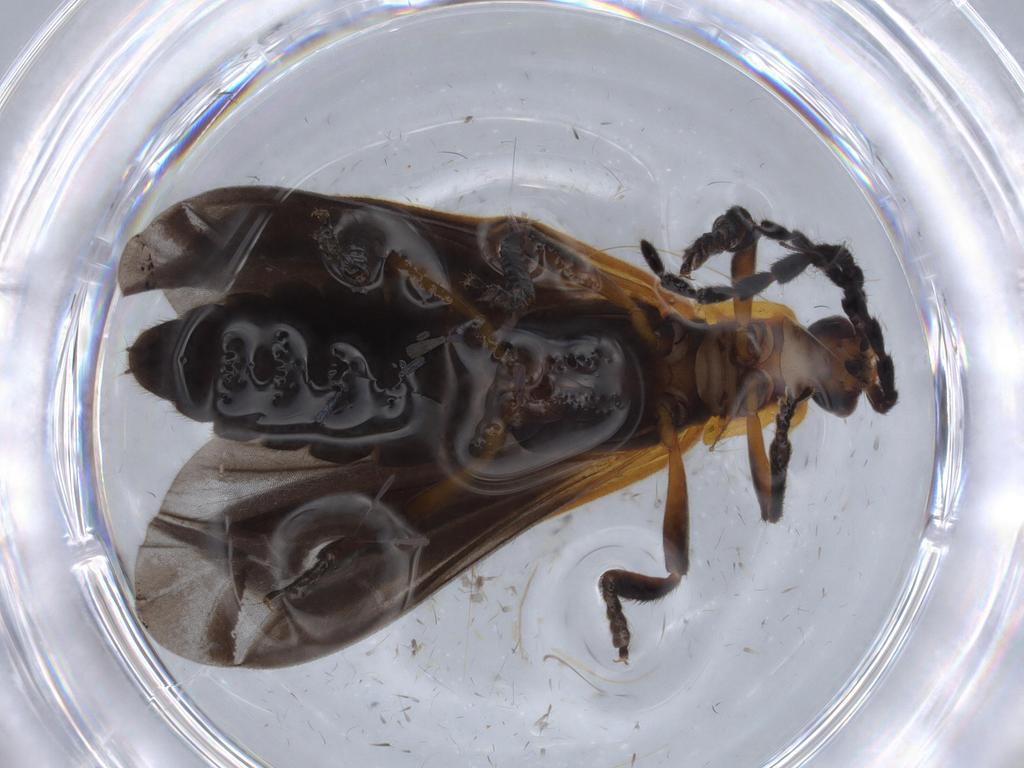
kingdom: Animalia
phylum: Arthropoda
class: Insecta
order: Coleoptera
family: Lycidae
